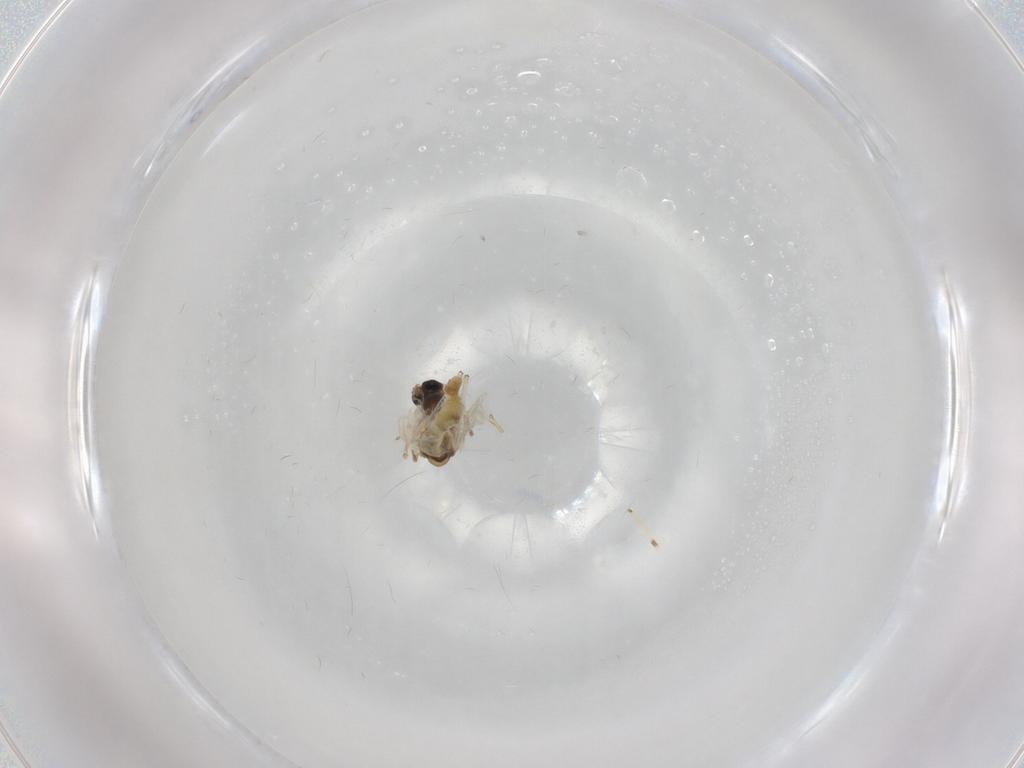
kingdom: Animalia
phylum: Arthropoda
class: Insecta
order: Diptera
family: Chironomidae
